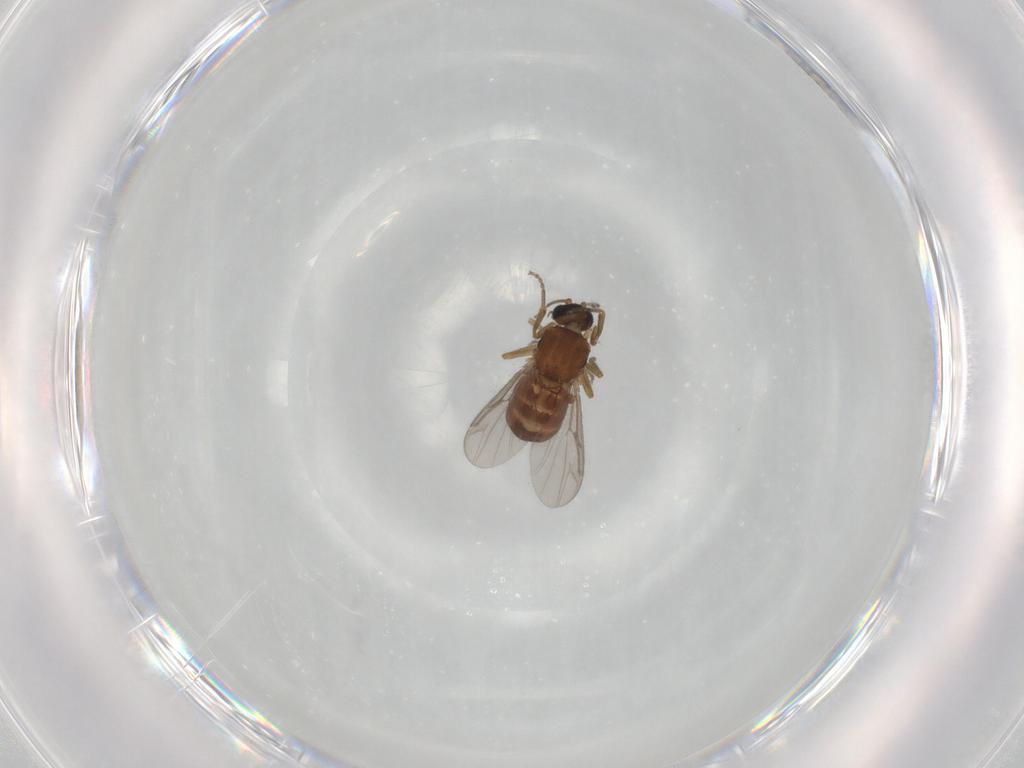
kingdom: Animalia
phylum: Arthropoda
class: Insecta
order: Diptera
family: Ceratopogonidae
